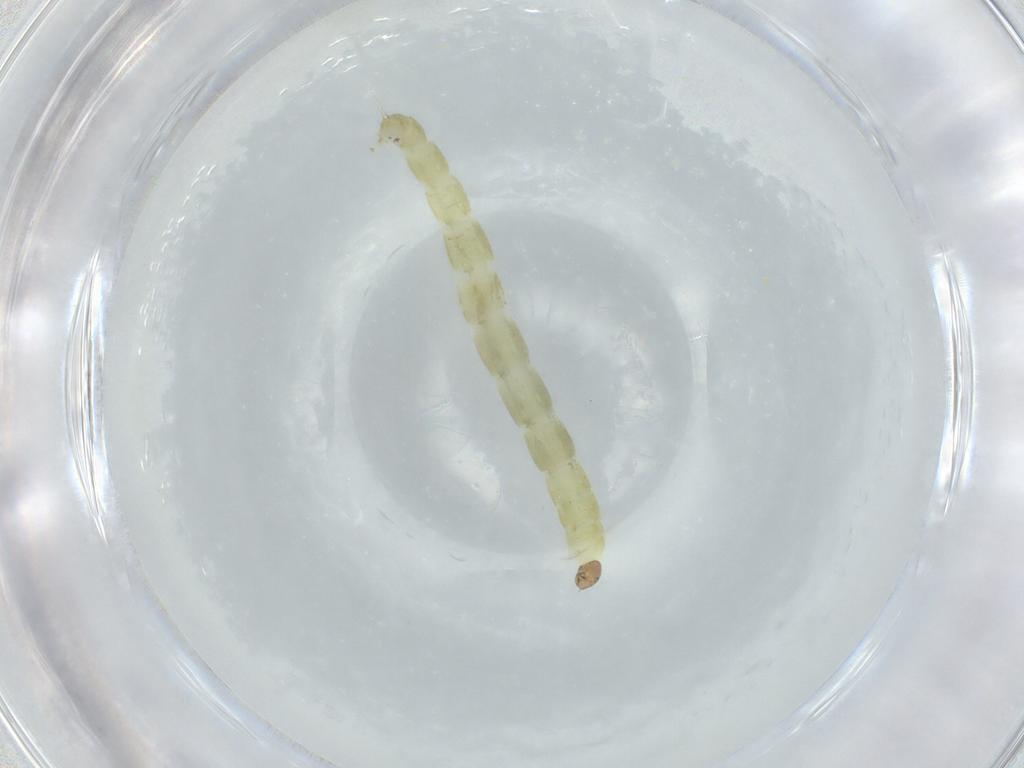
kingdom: Animalia
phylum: Arthropoda
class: Insecta
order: Diptera
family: Chironomidae
